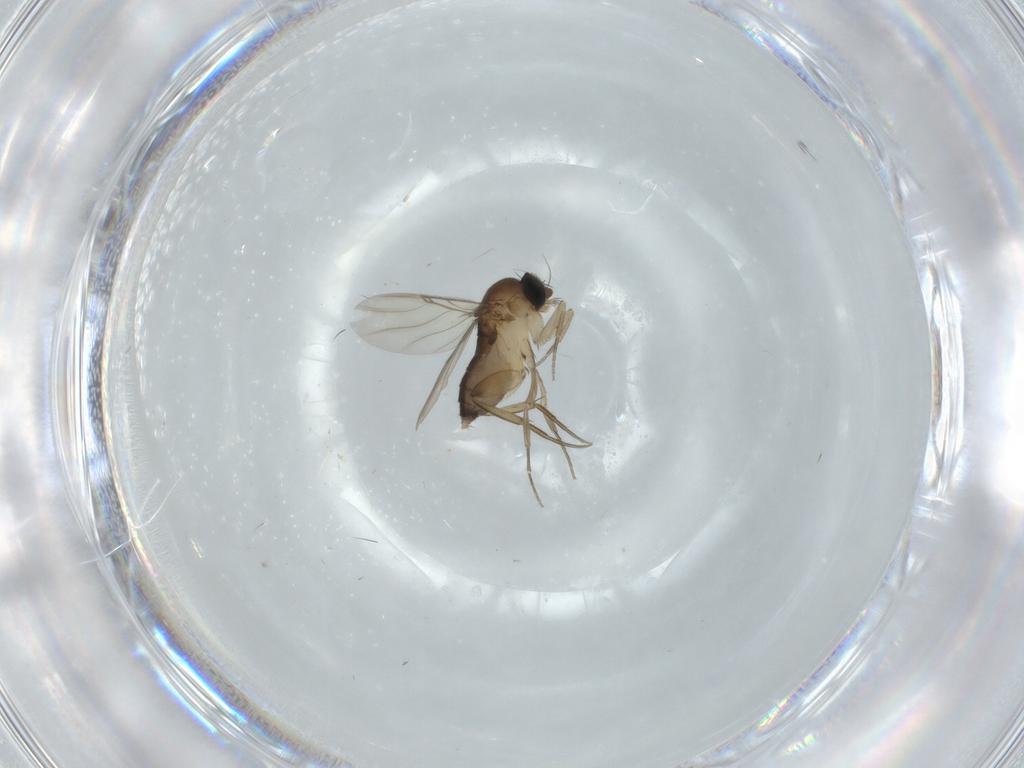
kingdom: Animalia
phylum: Arthropoda
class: Insecta
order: Diptera
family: Phoridae
